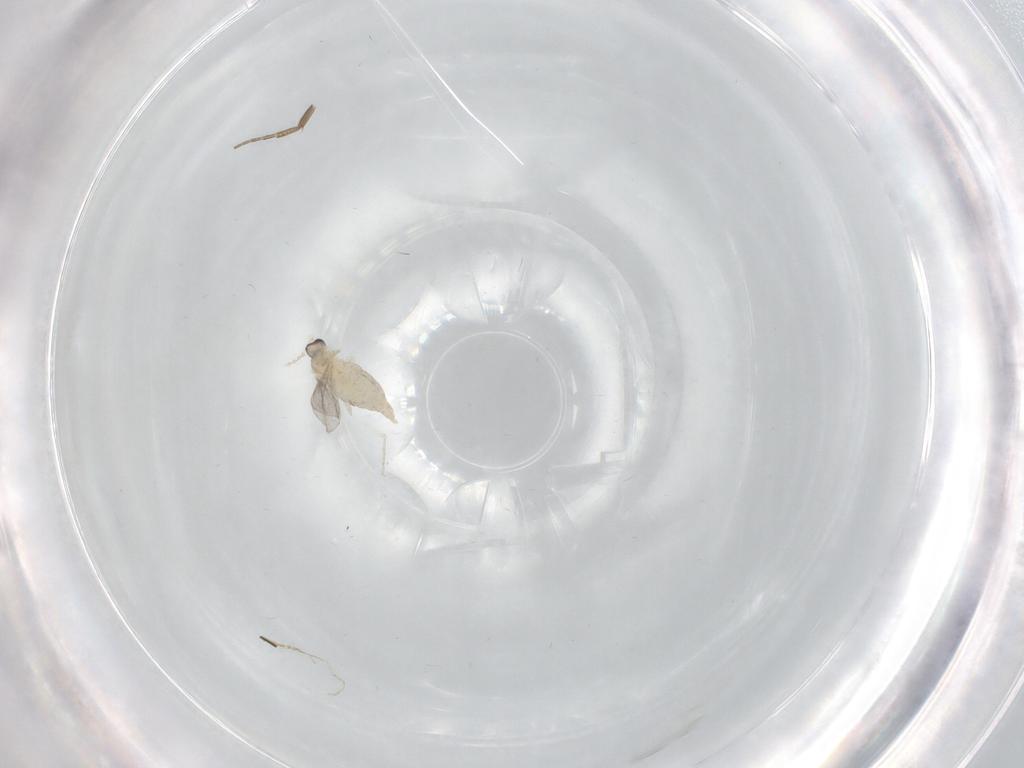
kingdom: Animalia
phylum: Arthropoda
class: Insecta
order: Diptera
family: Cecidomyiidae
